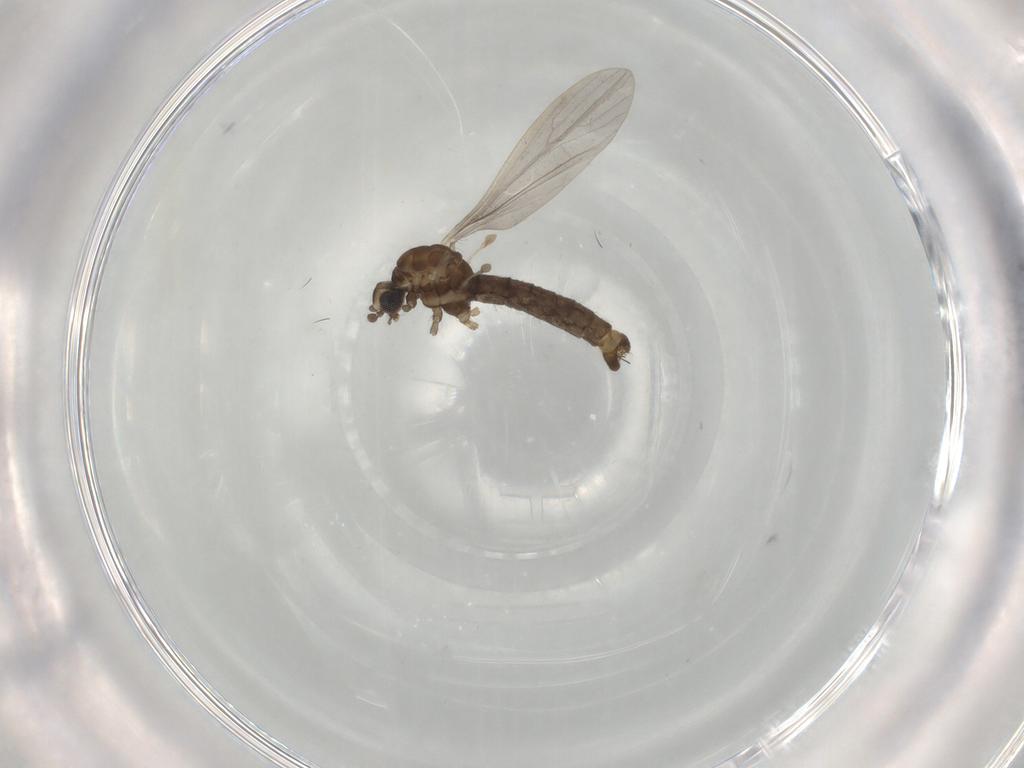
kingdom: Animalia
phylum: Arthropoda
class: Insecta
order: Diptera
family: Limoniidae
